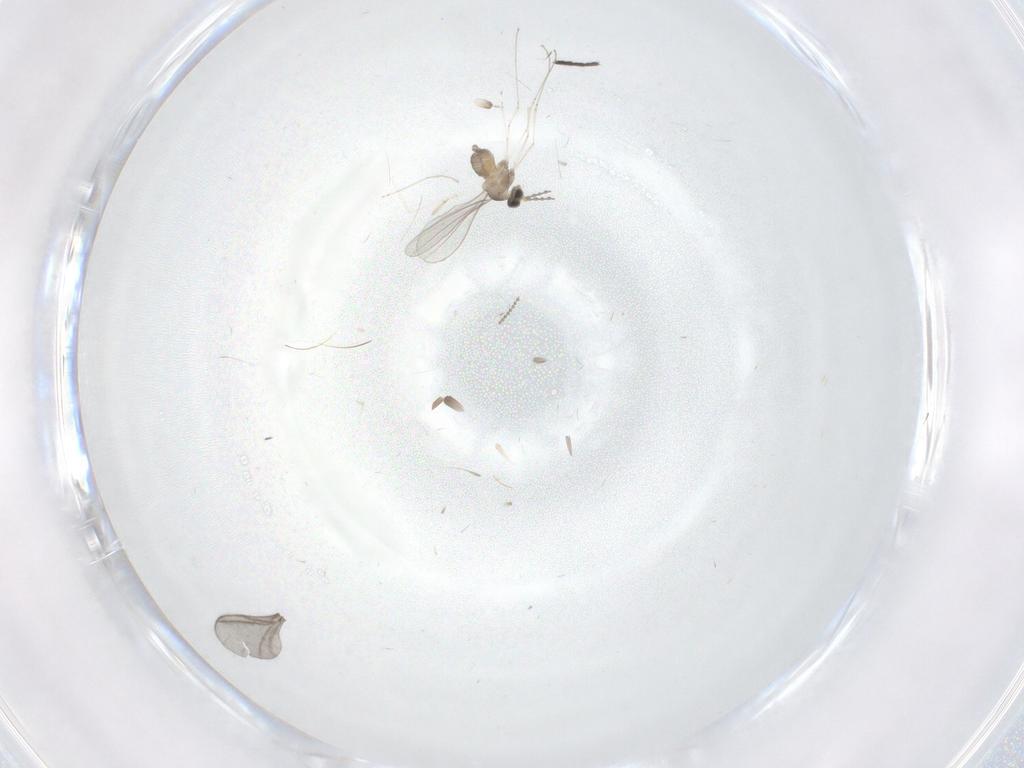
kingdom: Animalia
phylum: Arthropoda
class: Insecta
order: Diptera
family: Cecidomyiidae
